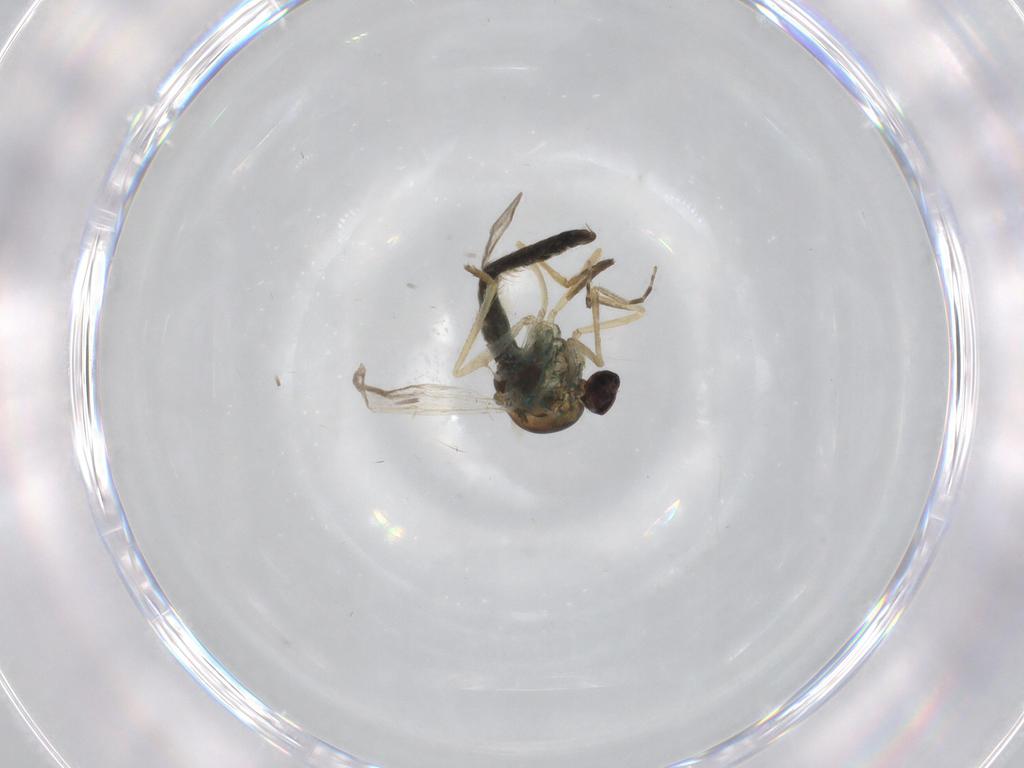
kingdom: Animalia
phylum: Arthropoda
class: Insecta
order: Diptera
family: Ceratopogonidae
